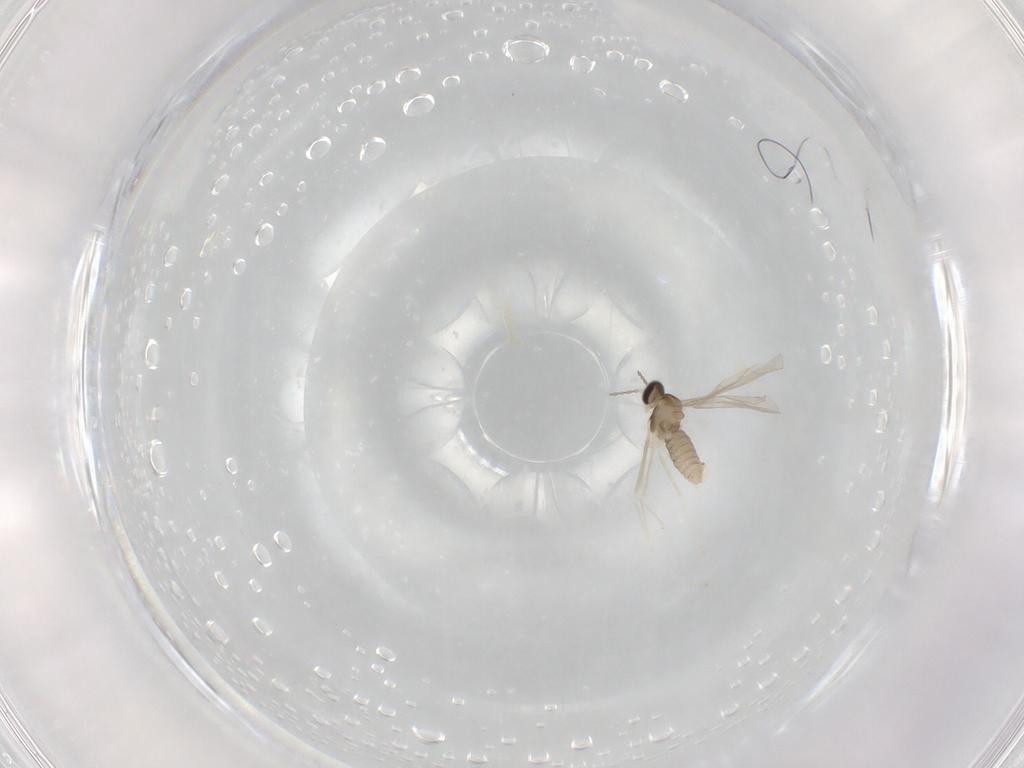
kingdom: Animalia
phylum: Arthropoda
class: Insecta
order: Diptera
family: Cecidomyiidae
